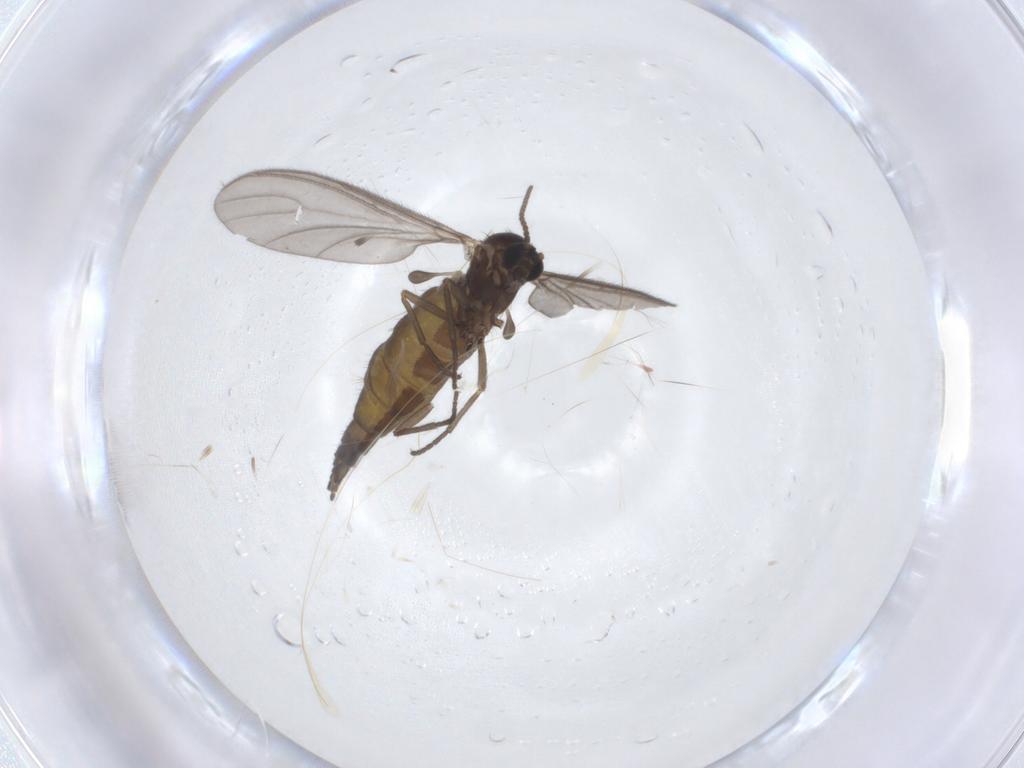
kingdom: Animalia
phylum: Arthropoda
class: Insecta
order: Diptera
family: Sciaridae
